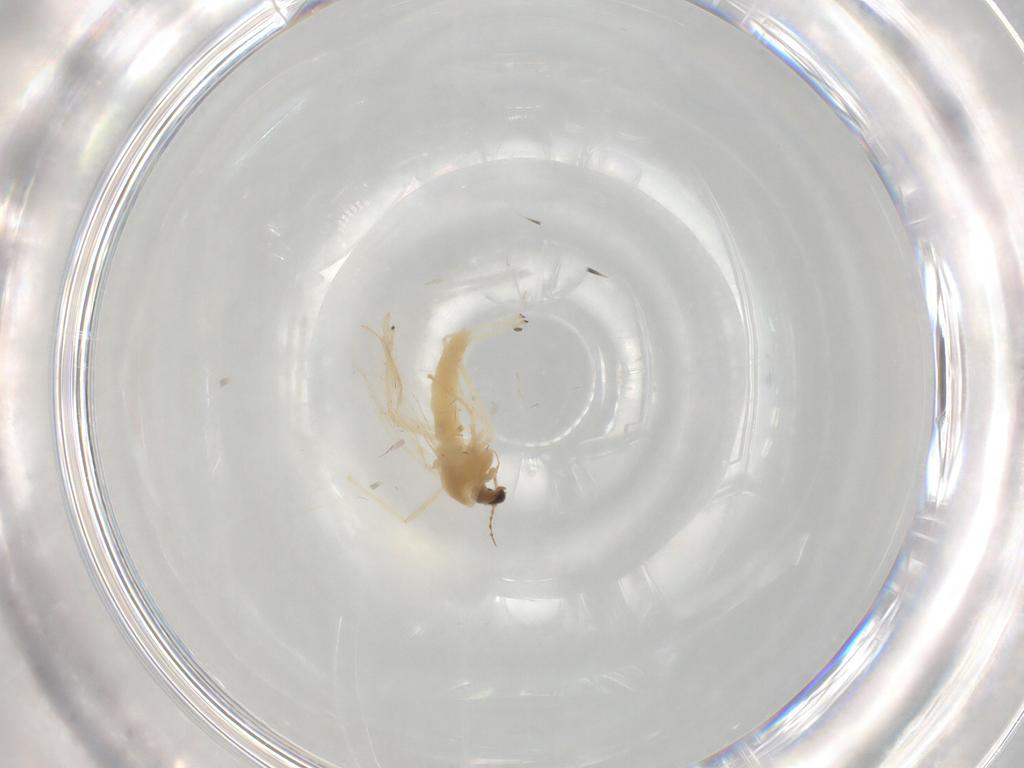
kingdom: Animalia
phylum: Arthropoda
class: Insecta
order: Diptera
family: Chironomidae
